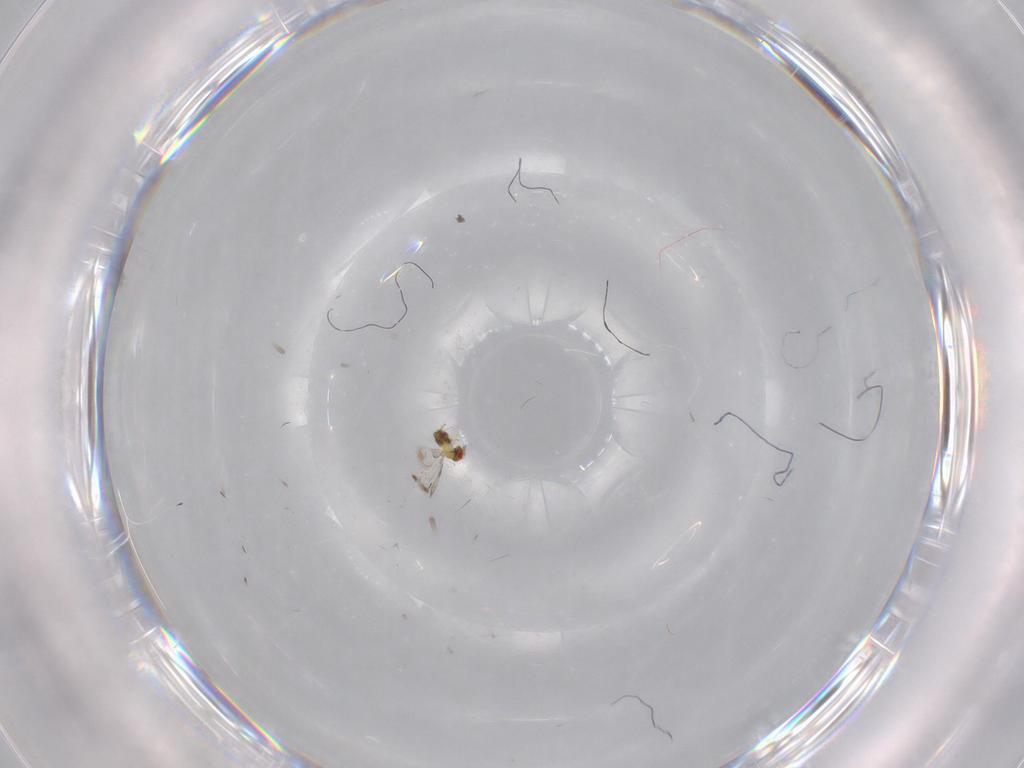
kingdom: Animalia
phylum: Arthropoda
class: Insecta
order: Hymenoptera
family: Formicidae
